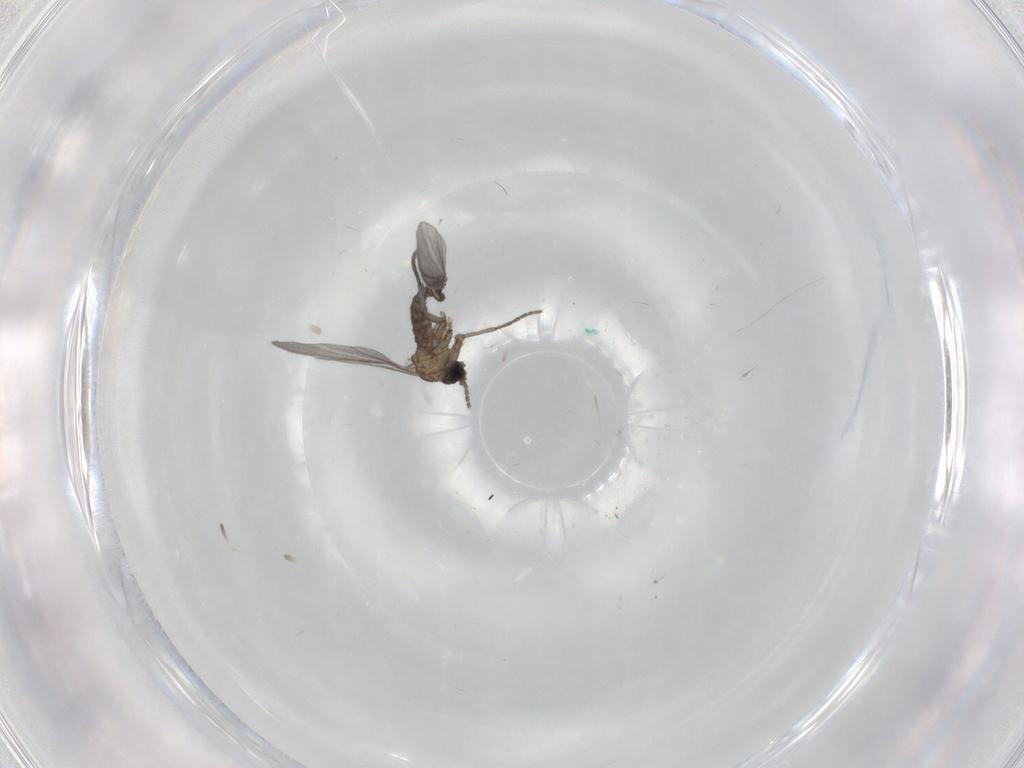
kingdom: Animalia
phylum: Arthropoda
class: Insecta
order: Diptera
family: Sciaridae
